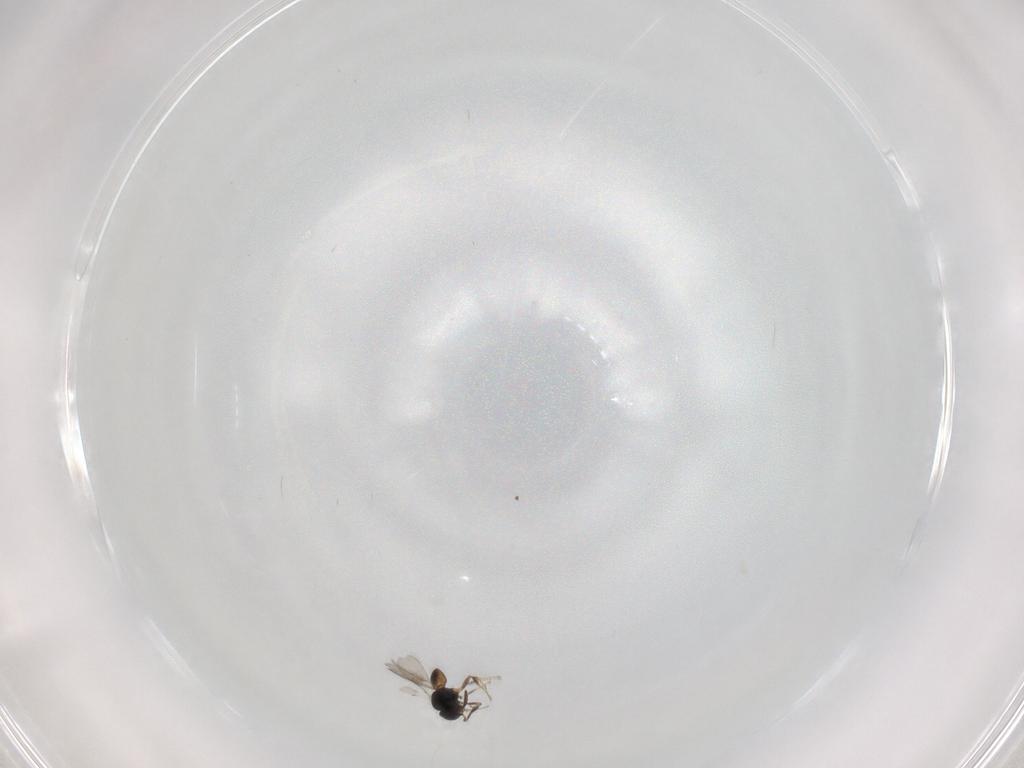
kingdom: Animalia
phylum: Arthropoda
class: Insecta
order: Hymenoptera
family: Scelionidae
